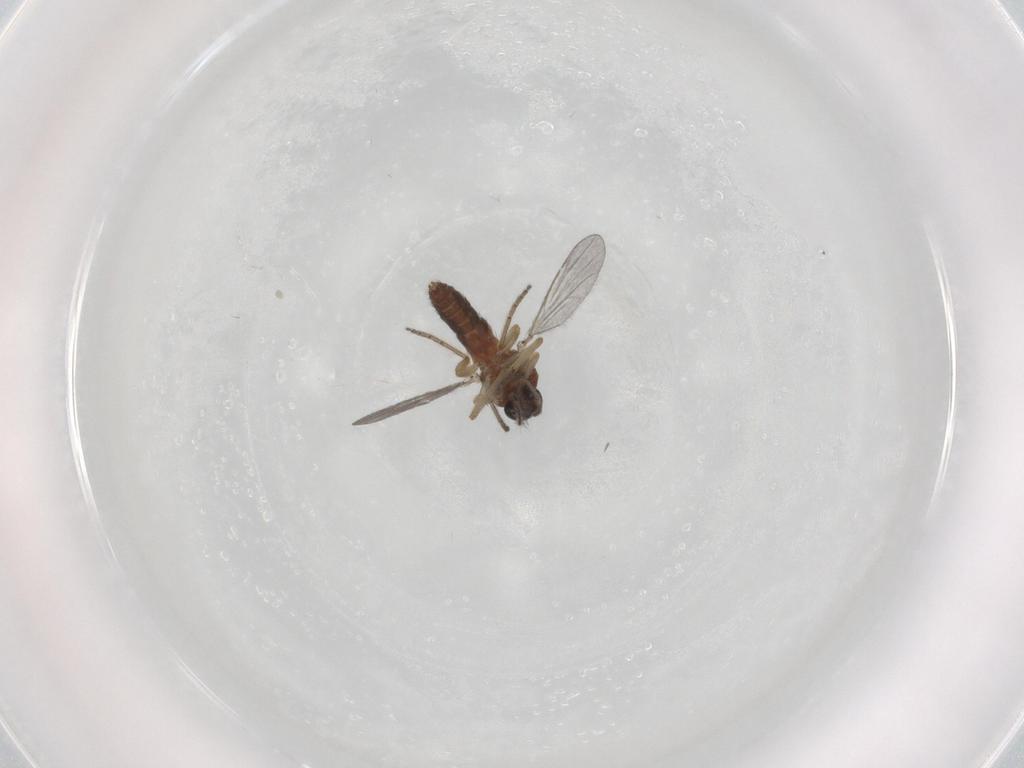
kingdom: Animalia
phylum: Arthropoda
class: Insecta
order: Diptera
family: Ceratopogonidae
